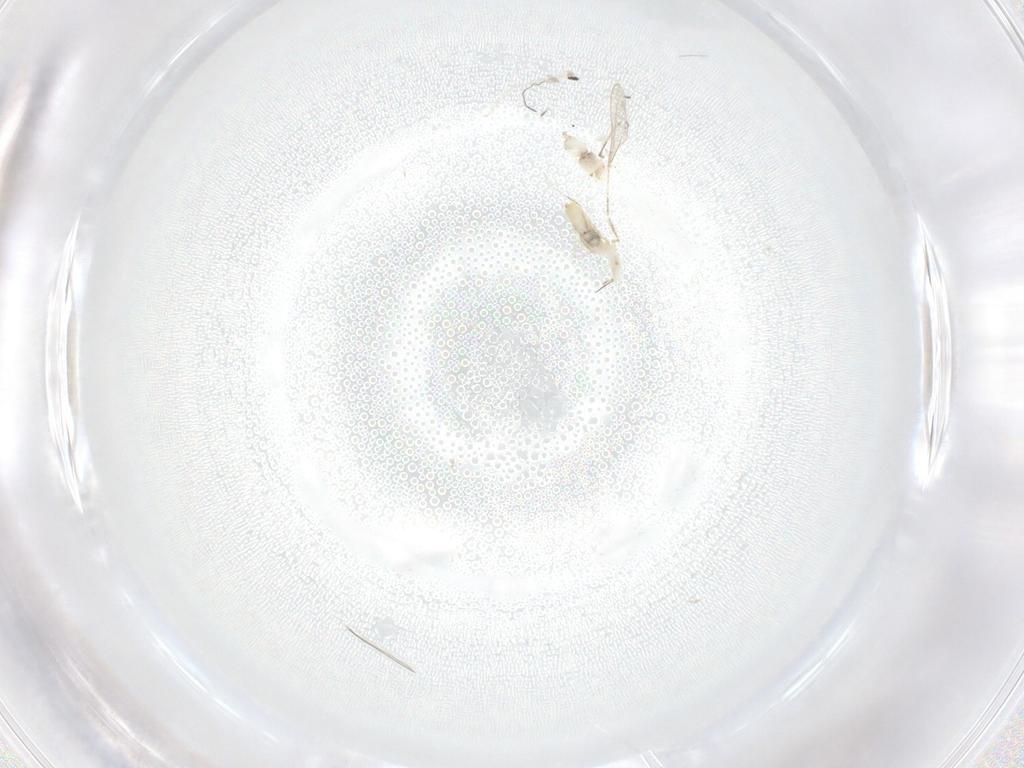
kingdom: Animalia
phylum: Arthropoda
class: Insecta
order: Diptera
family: Cecidomyiidae
